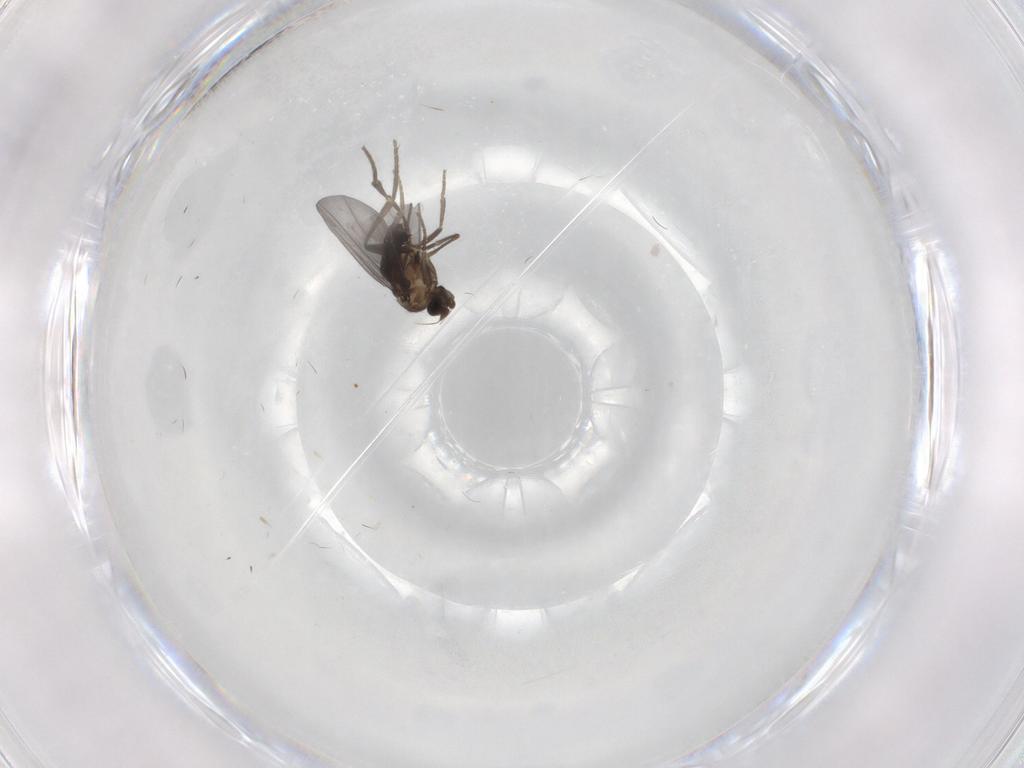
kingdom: Animalia
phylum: Arthropoda
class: Insecta
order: Diptera
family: Phoridae
